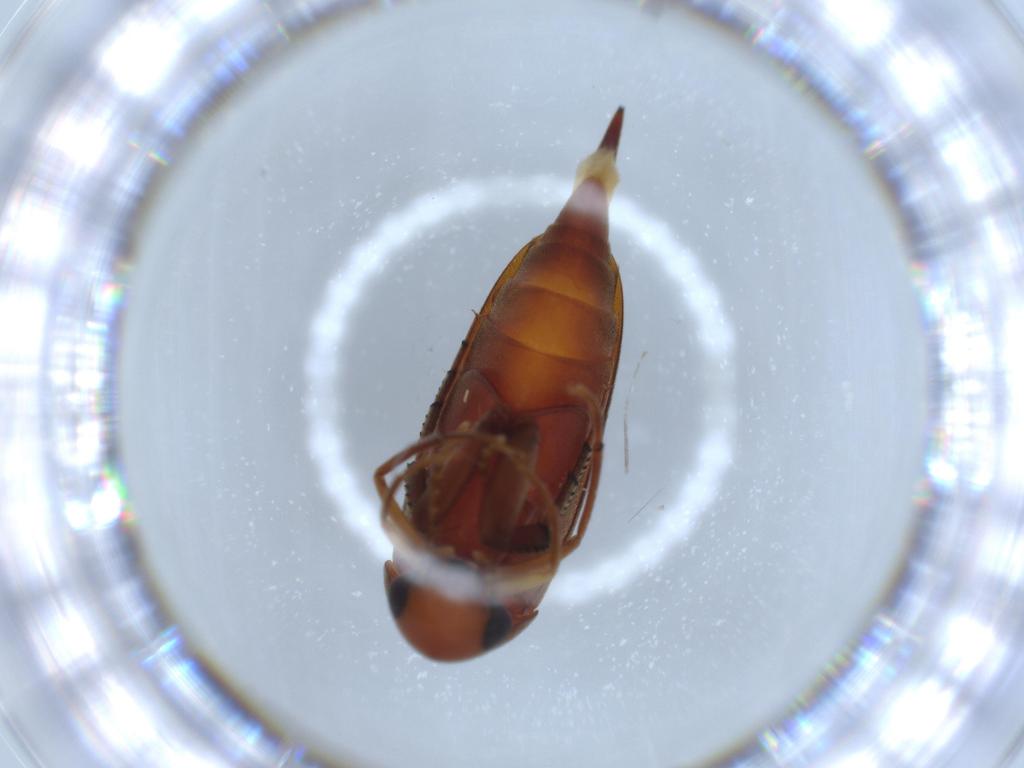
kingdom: Animalia
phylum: Arthropoda
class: Insecta
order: Coleoptera
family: Mordellidae
